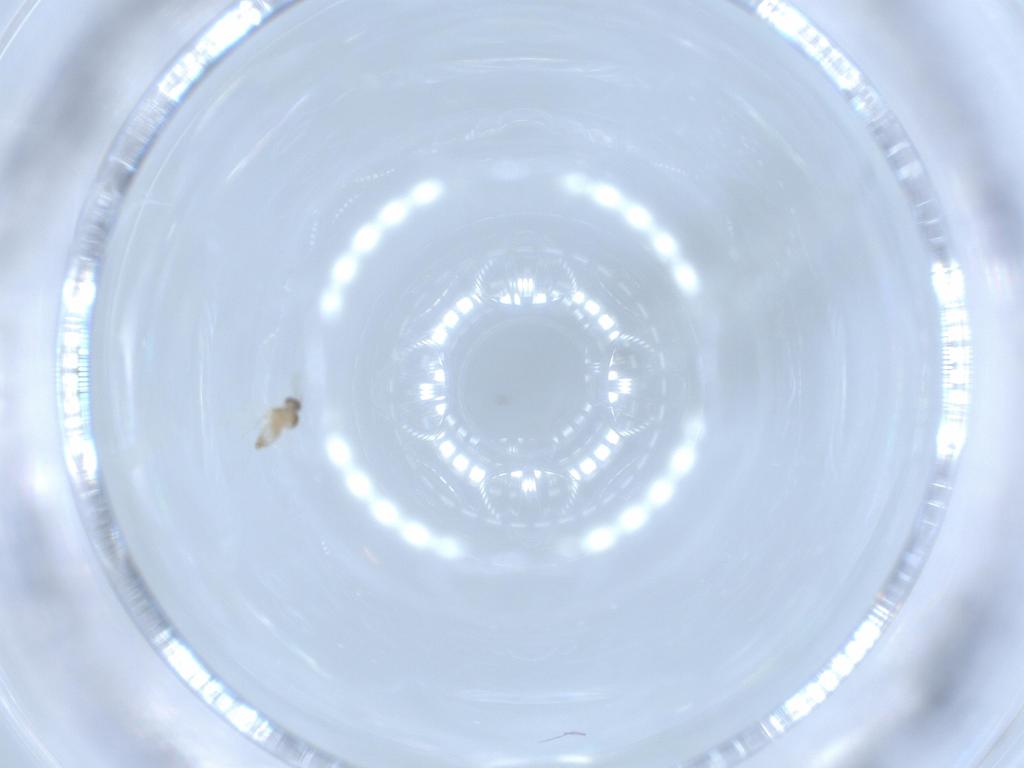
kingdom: Animalia
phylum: Arthropoda
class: Insecta
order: Diptera
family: Cecidomyiidae
